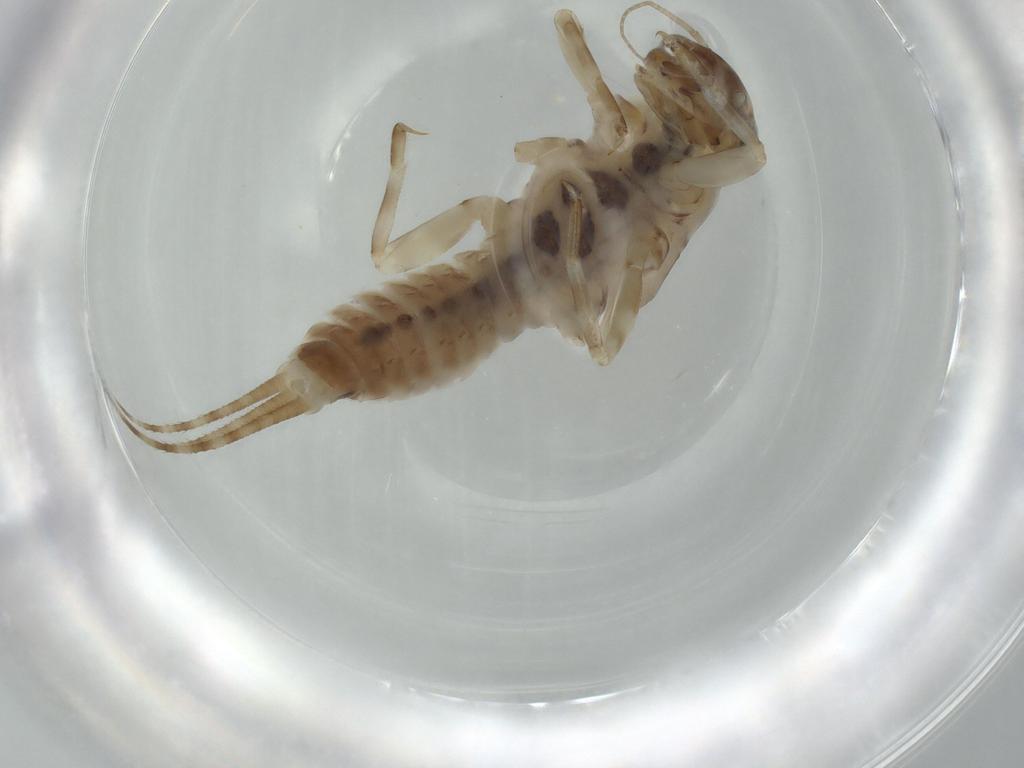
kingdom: Animalia
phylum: Arthropoda
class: Insecta
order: Ephemeroptera
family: Ephemerellidae
